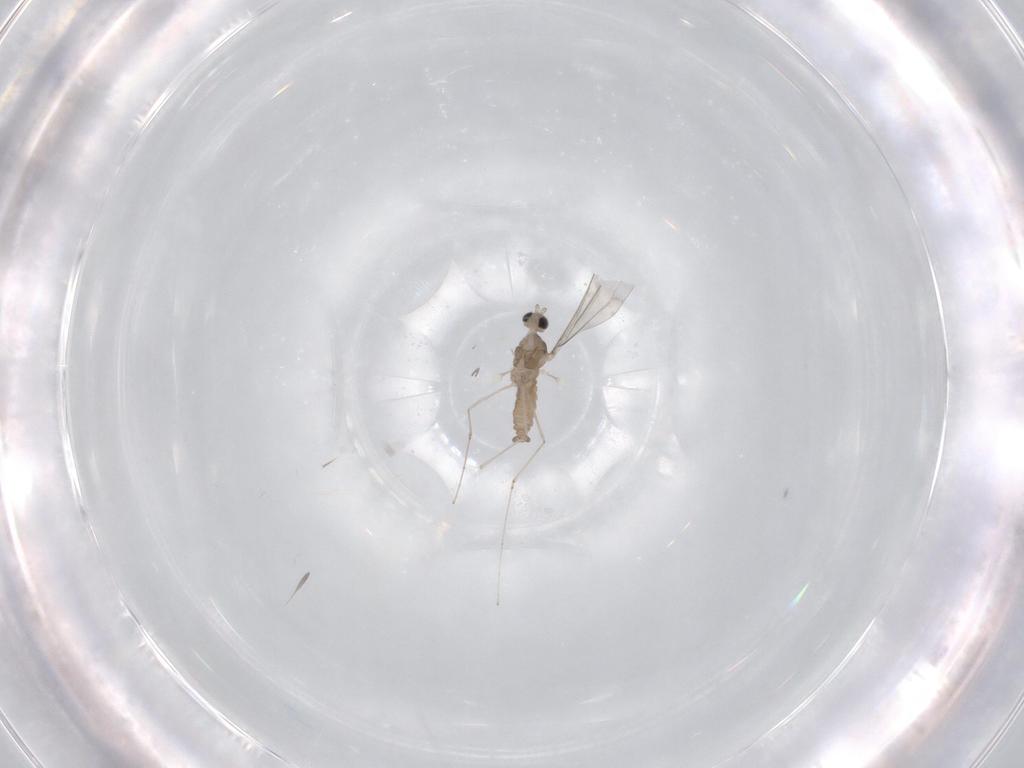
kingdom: Animalia
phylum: Arthropoda
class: Insecta
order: Diptera
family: Cecidomyiidae
